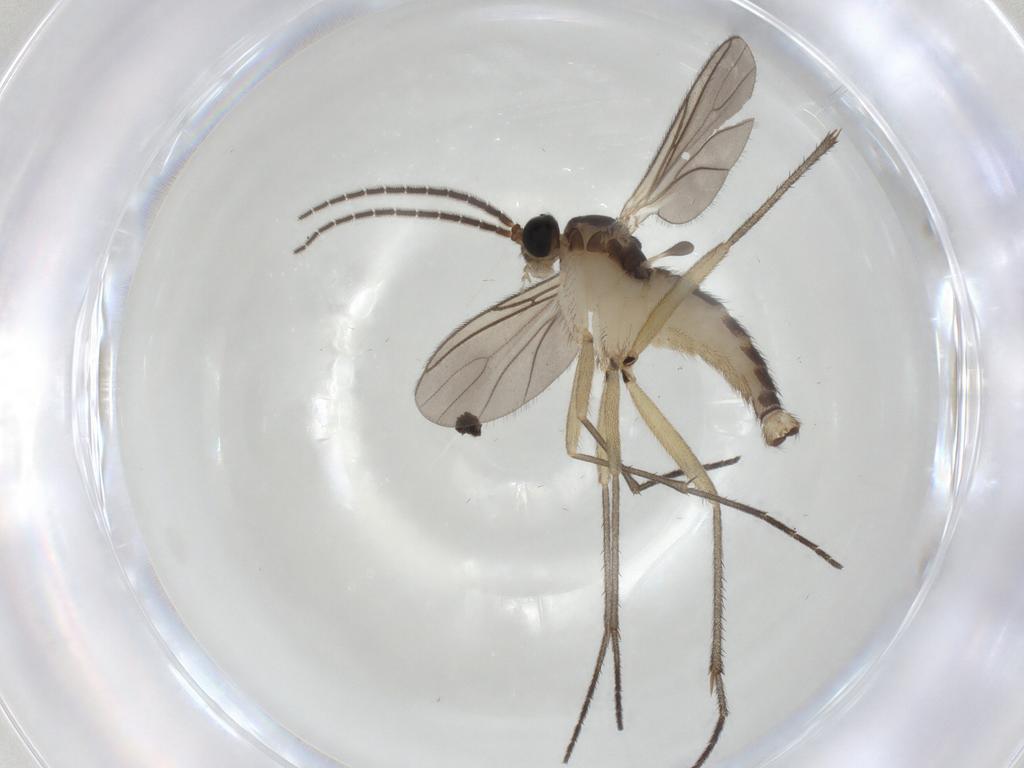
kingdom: Animalia
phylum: Arthropoda
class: Insecta
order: Diptera
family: Sciaridae
